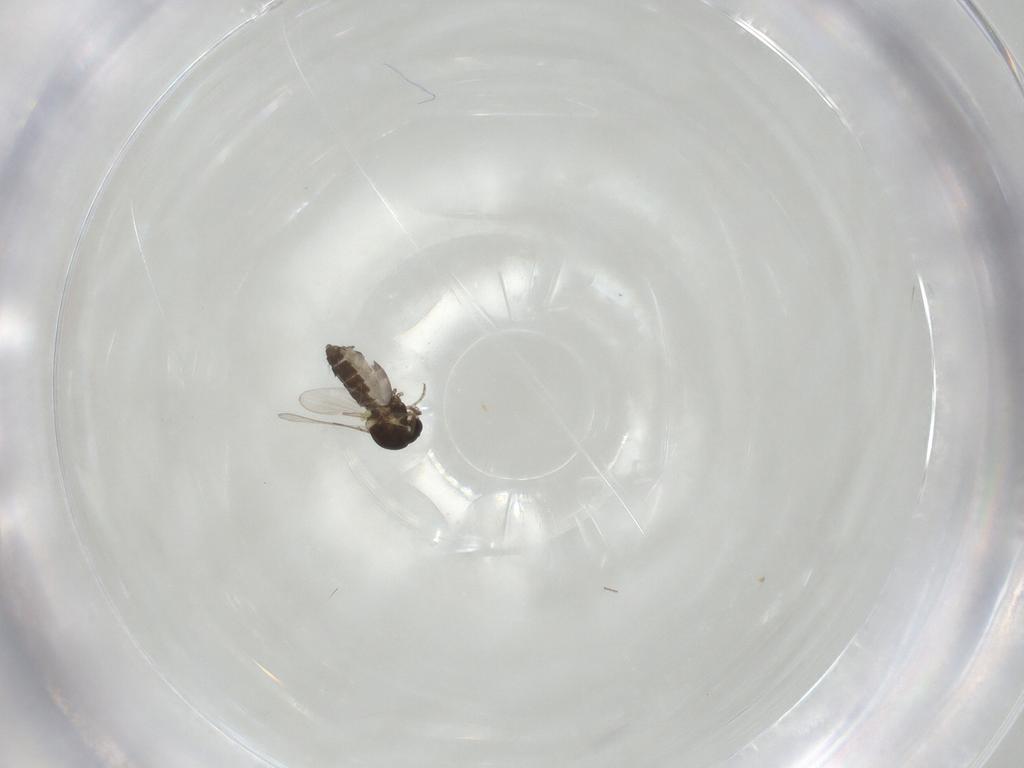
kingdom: Animalia
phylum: Arthropoda
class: Insecta
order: Diptera
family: Ceratopogonidae
